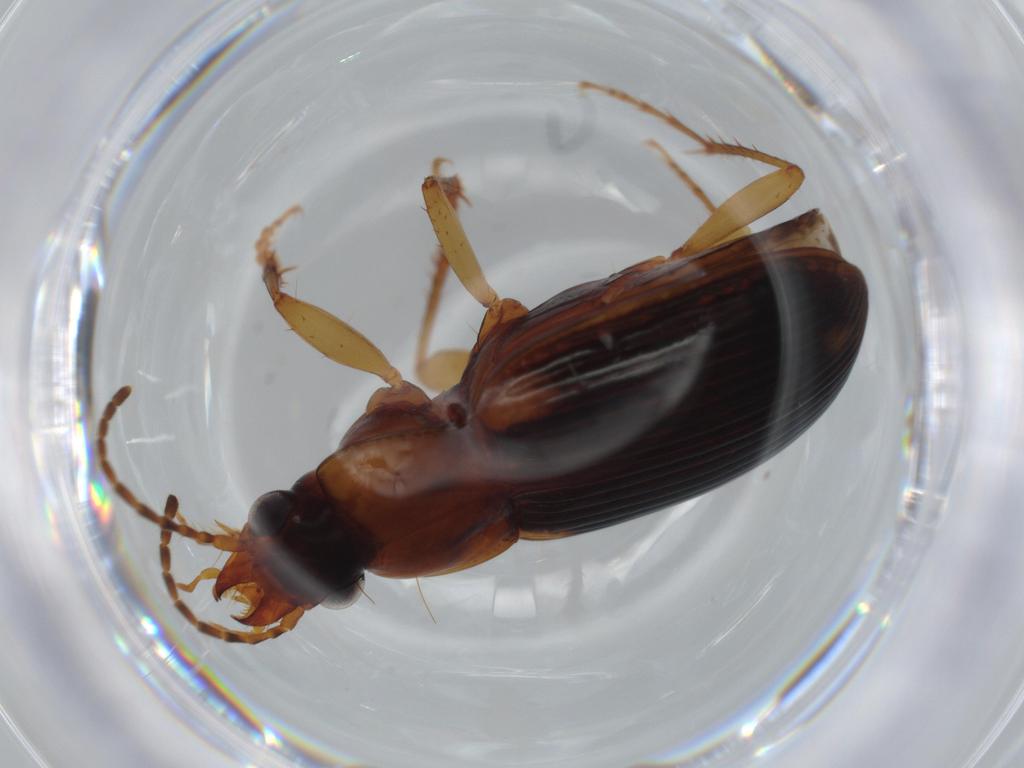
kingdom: Animalia
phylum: Arthropoda
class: Insecta
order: Coleoptera
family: Carabidae
